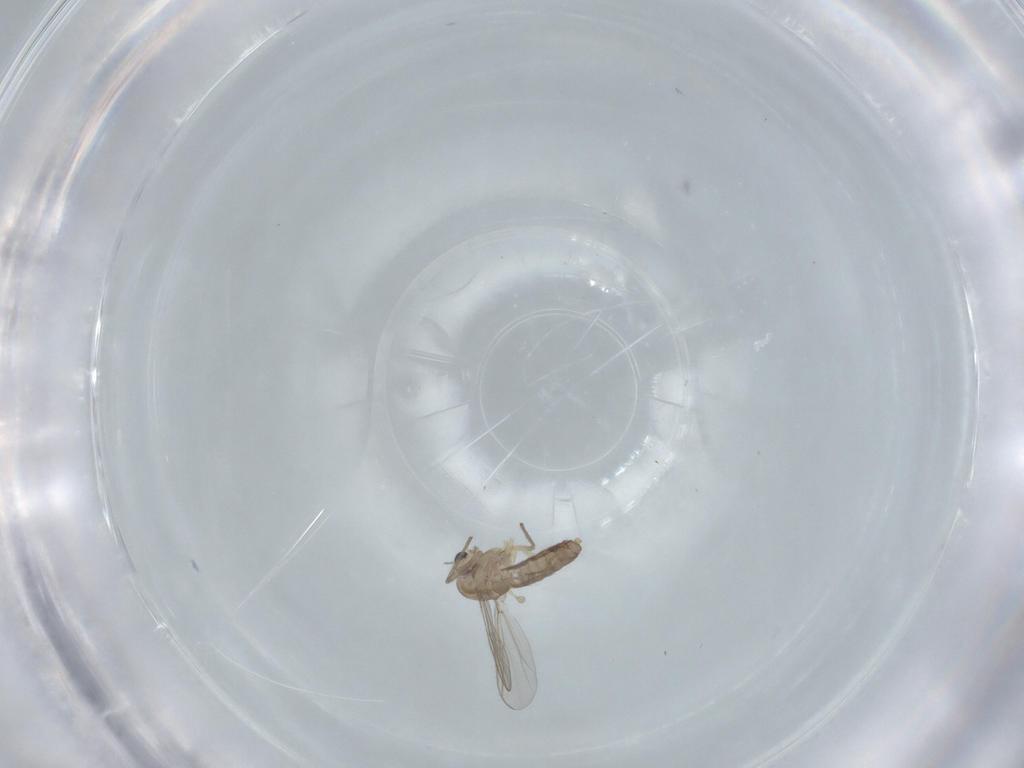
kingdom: Animalia
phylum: Arthropoda
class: Insecta
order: Diptera
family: Chironomidae
